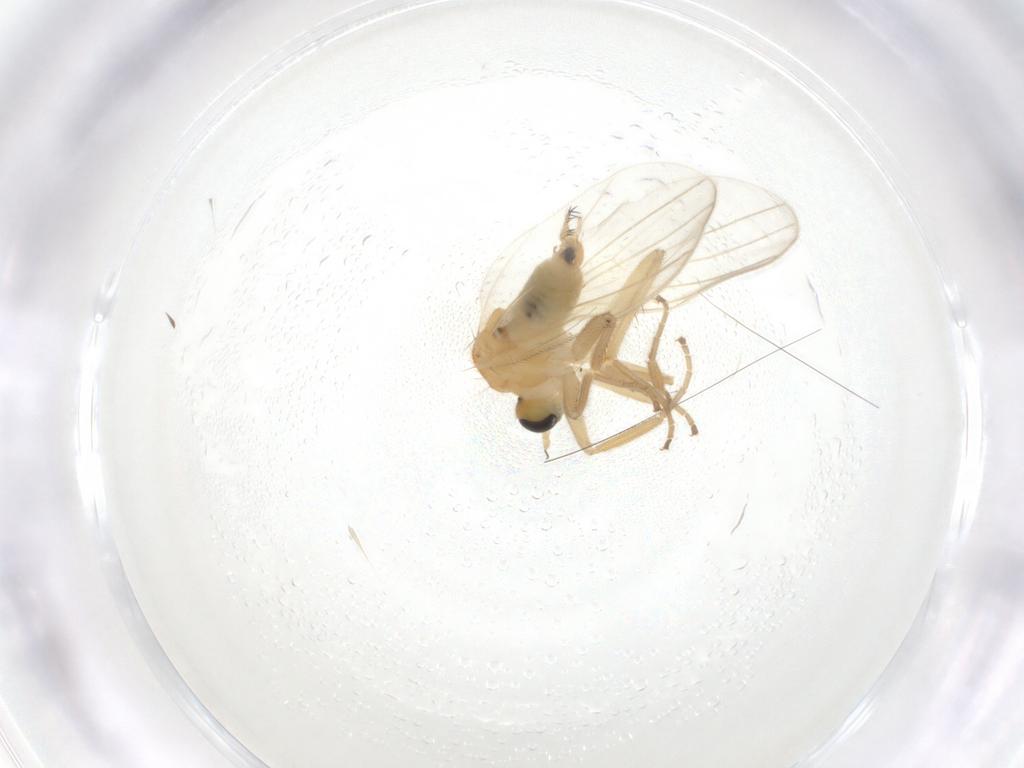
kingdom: Animalia
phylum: Arthropoda
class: Insecta
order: Diptera
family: Hybotidae
